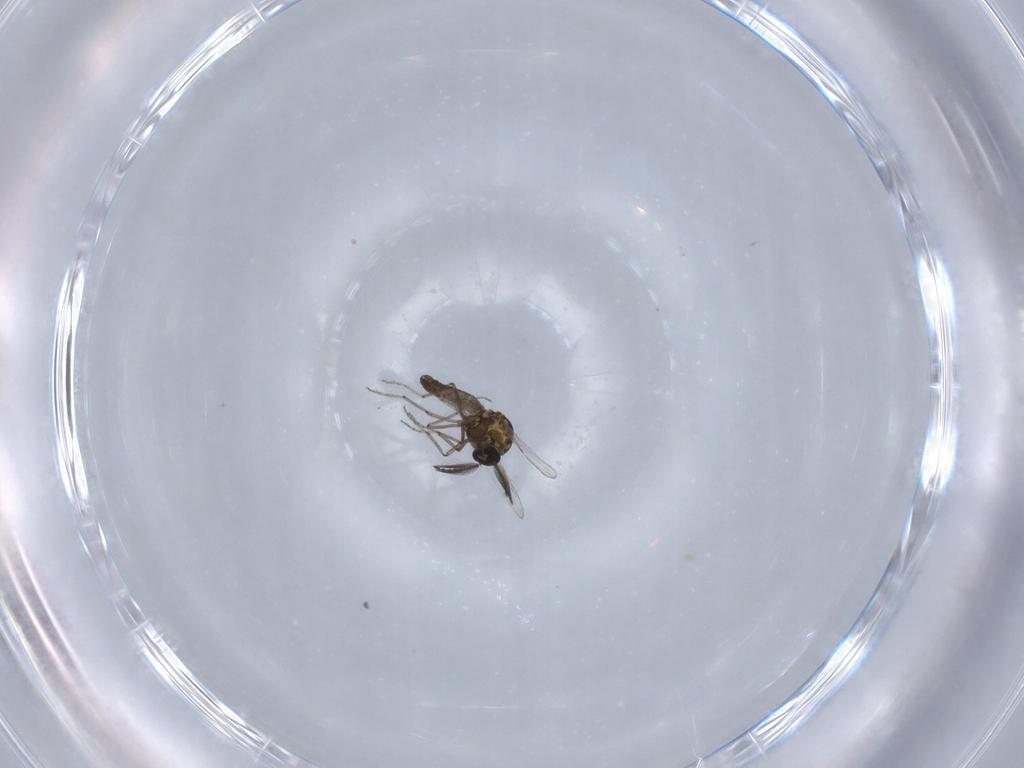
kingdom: Animalia
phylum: Arthropoda
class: Insecta
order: Diptera
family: Ceratopogonidae
